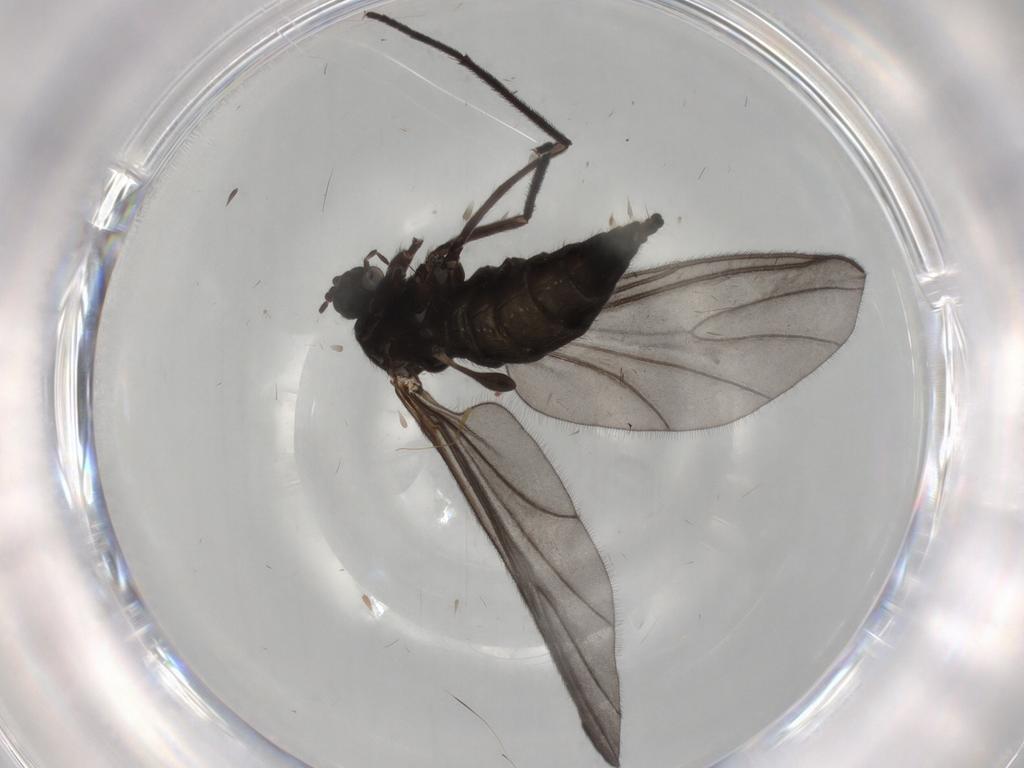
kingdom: Animalia
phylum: Arthropoda
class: Insecta
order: Diptera
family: Sciaridae
